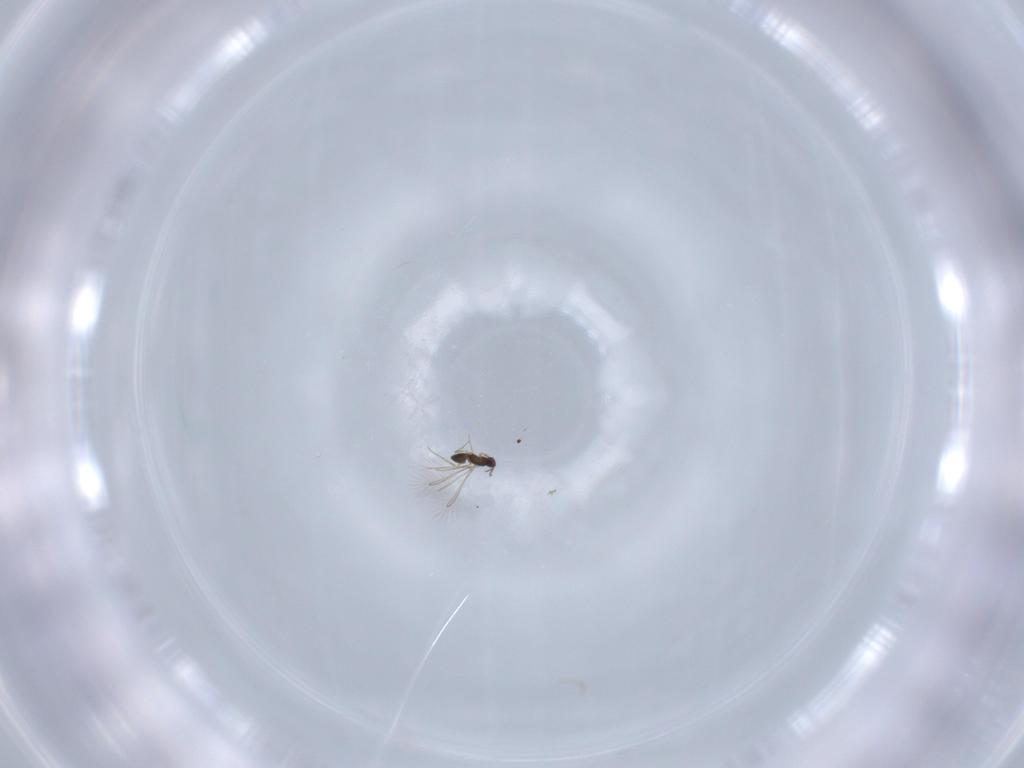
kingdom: Animalia
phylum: Arthropoda
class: Insecta
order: Hymenoptera
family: Mymaridae
